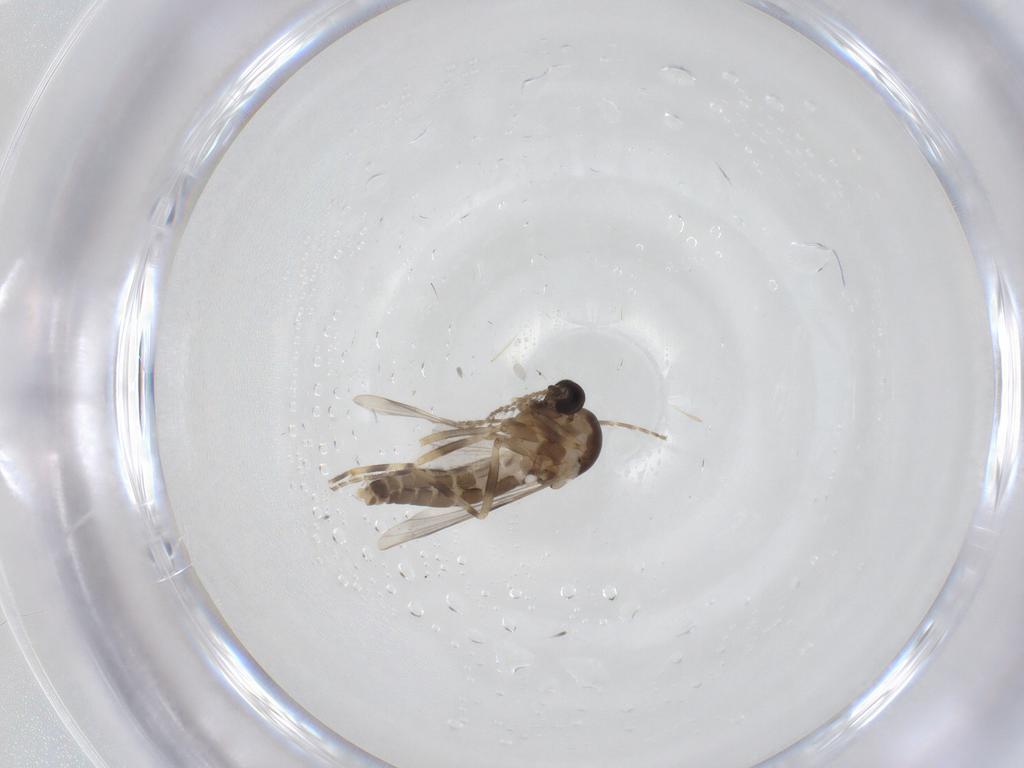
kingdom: Animalia
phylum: Arthropoda
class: Insecta
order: Diptera
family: Ceratopogonidae
